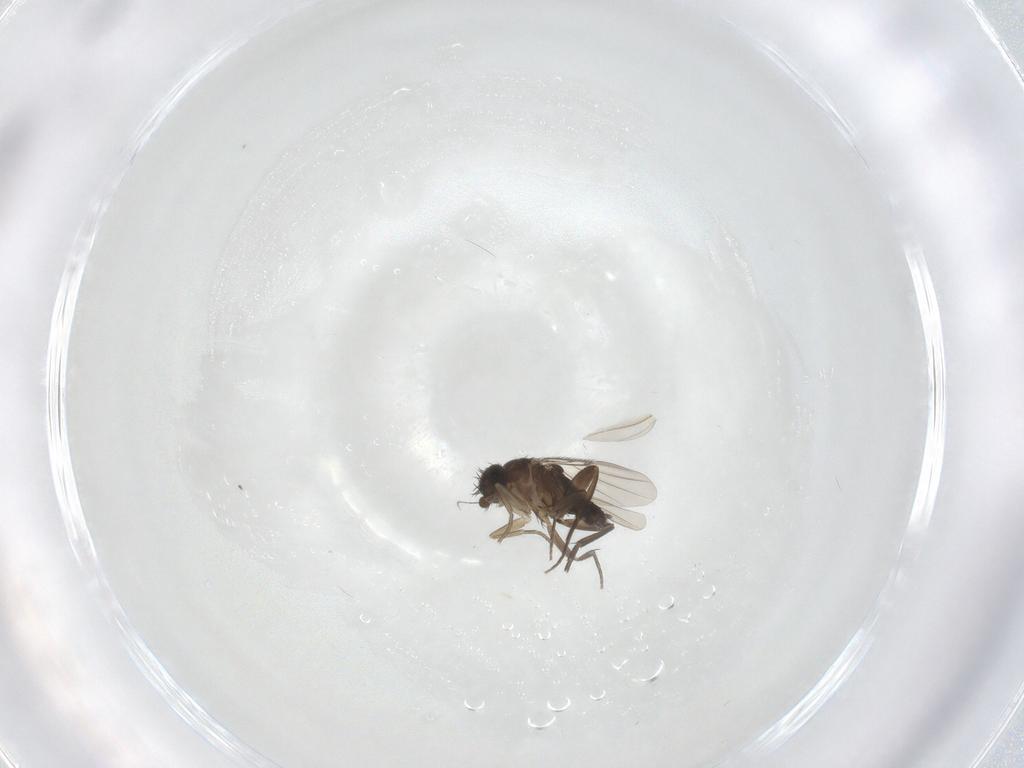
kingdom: Animalia
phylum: Arthropoda
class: Insecta
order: Diptera
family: Phoridae
